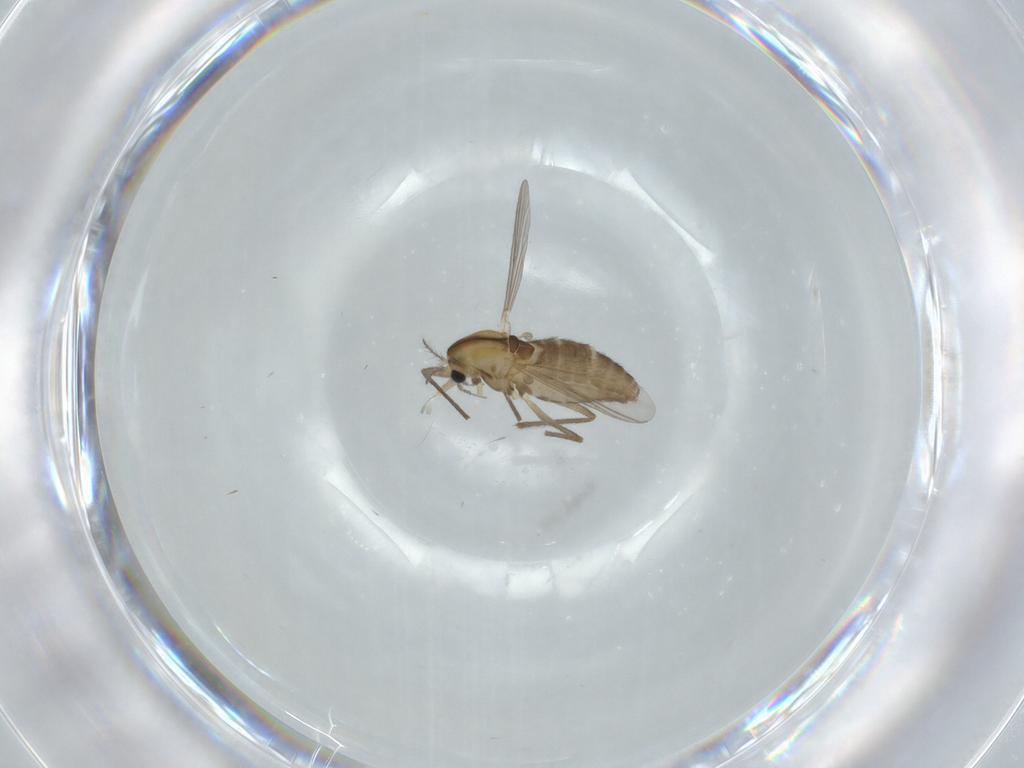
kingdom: Animalia
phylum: Arthropoda
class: Insecta
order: Diptera
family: Chironomidae
